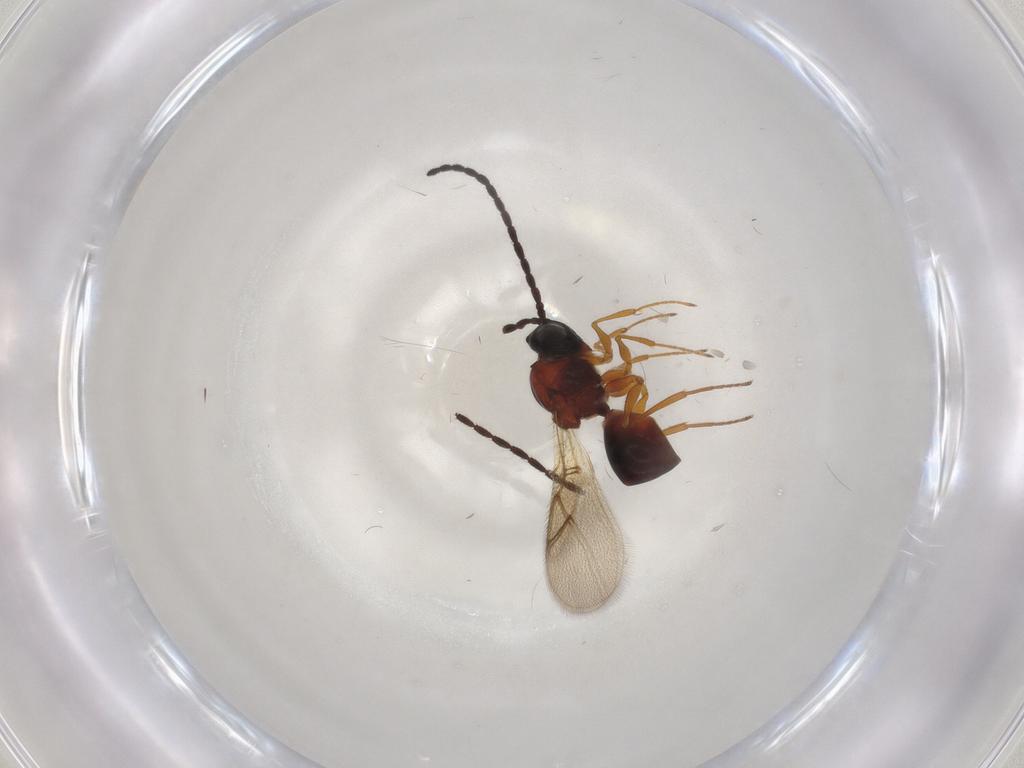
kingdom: Animalia
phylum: Arthropoda
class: Insecta
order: Hymenoptera
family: Figitidae
